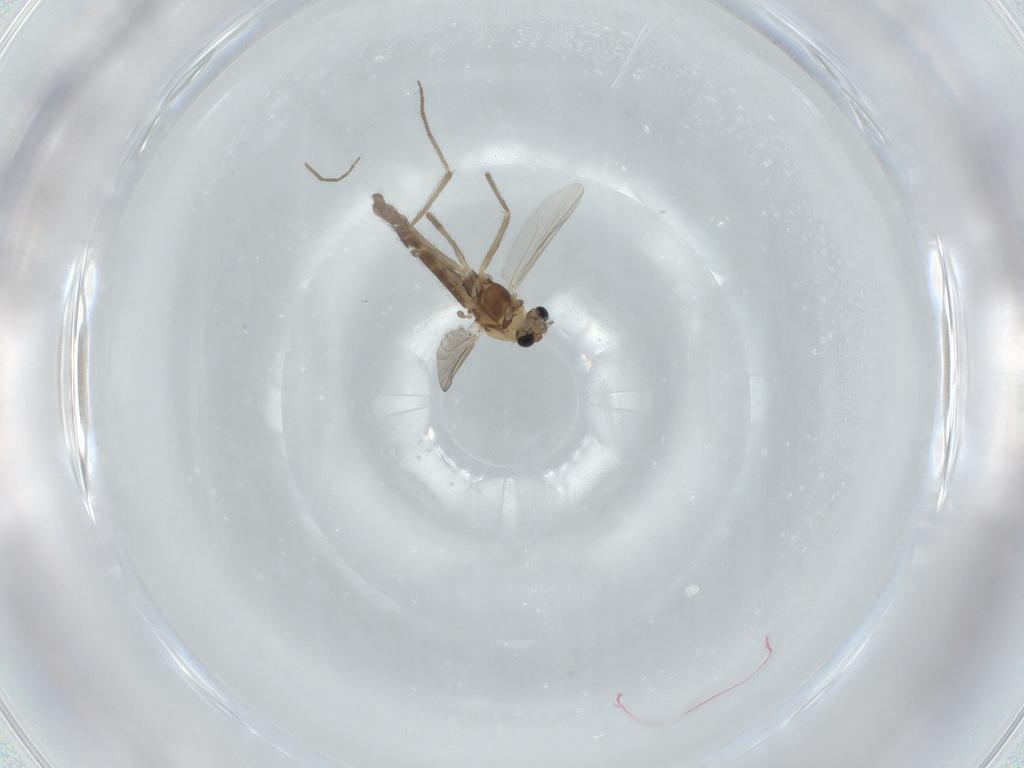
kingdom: Animalia
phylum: Arthropoda
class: Insecta
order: Diptera
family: Chironomidae
